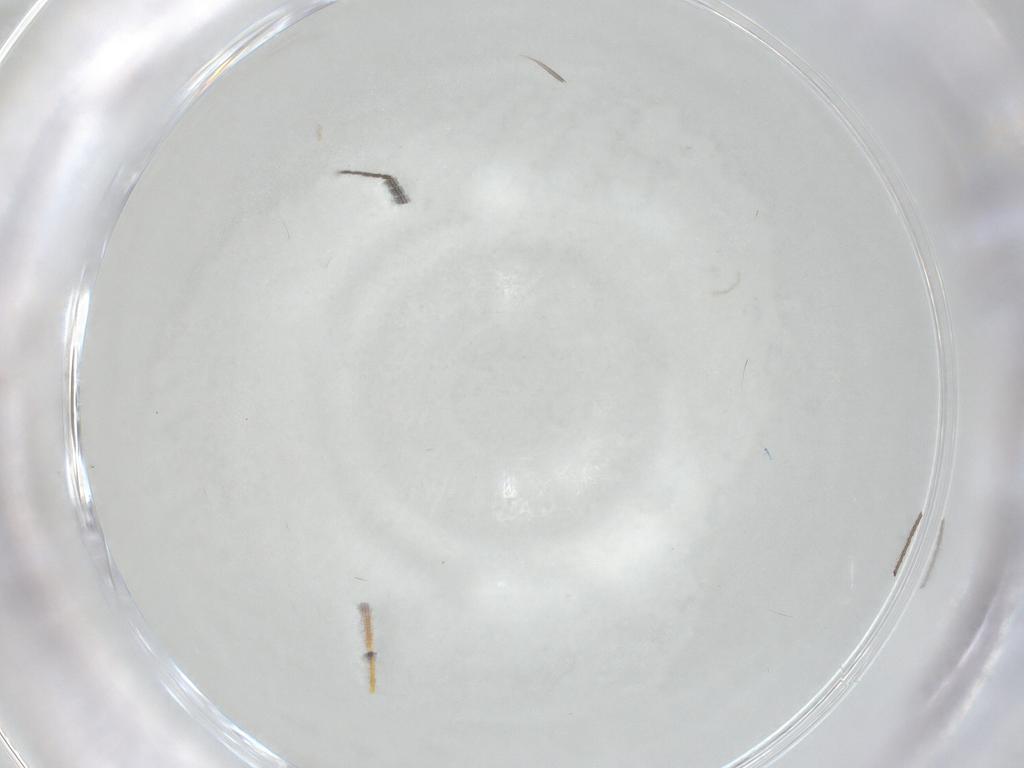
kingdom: Animalia
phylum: Arthropoda
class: Insecta
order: Diptera
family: Sciaridae
